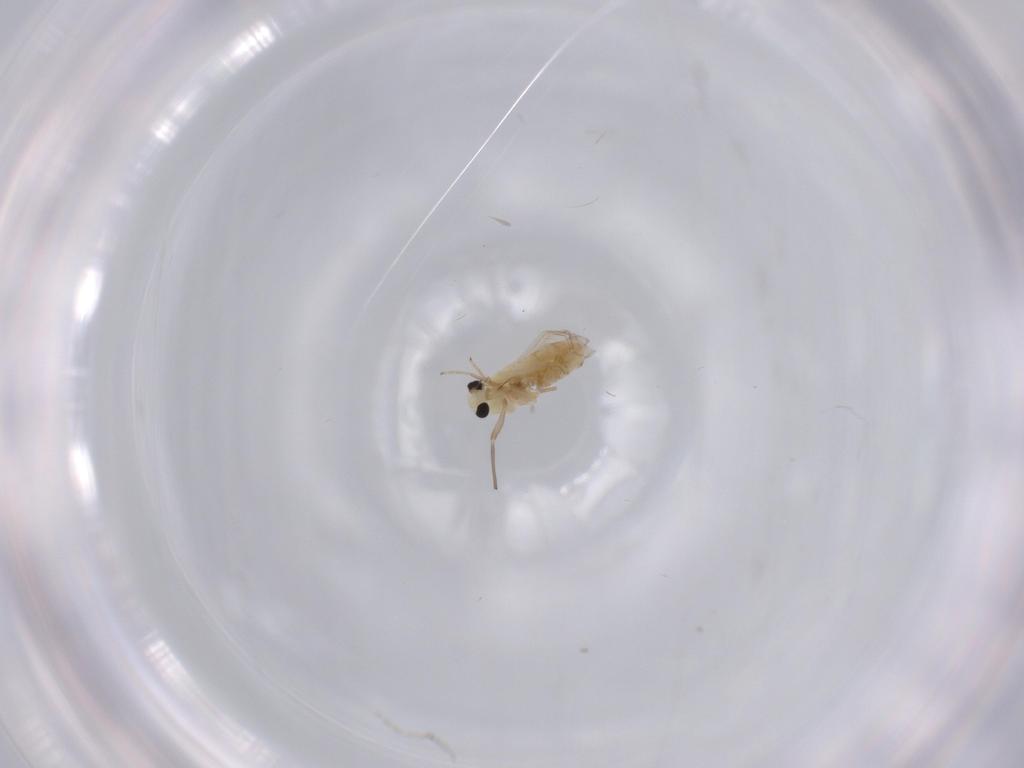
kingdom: Animalia
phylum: Arthropoda
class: Insecta
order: Diptera
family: Chironomidae
